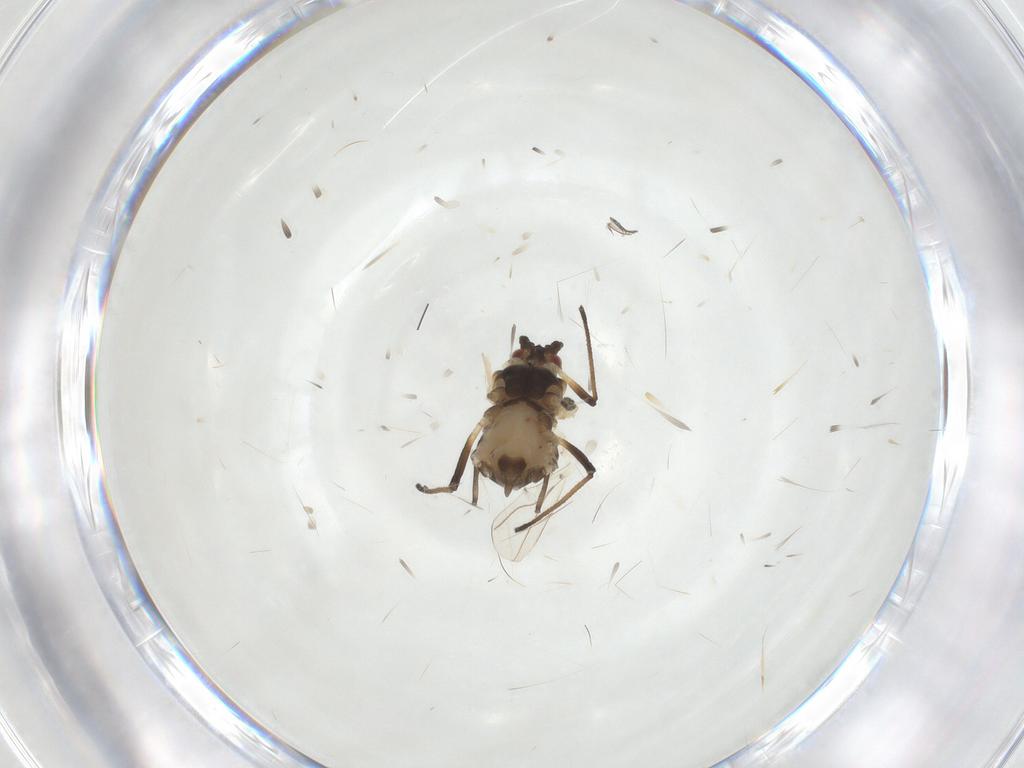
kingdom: Animalia
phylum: Arthropoda
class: Insecta
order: Hemiptera
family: Aphididae
